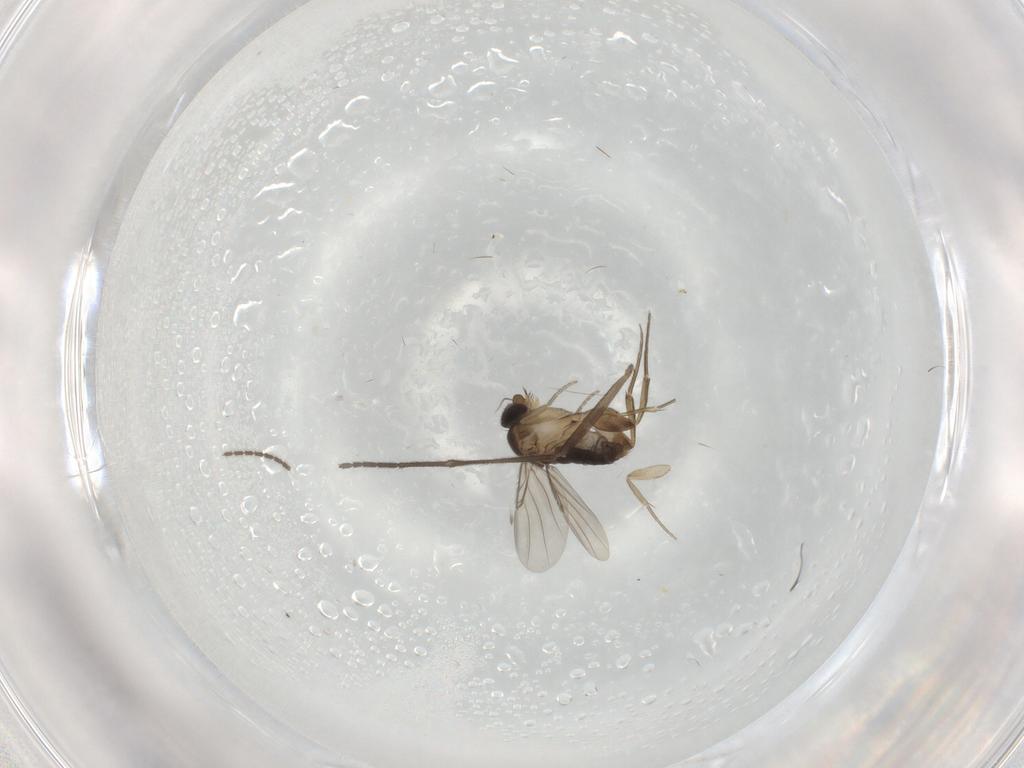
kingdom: Animalia
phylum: Arthropoda
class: Insecta
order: Diptera
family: Phoridae
